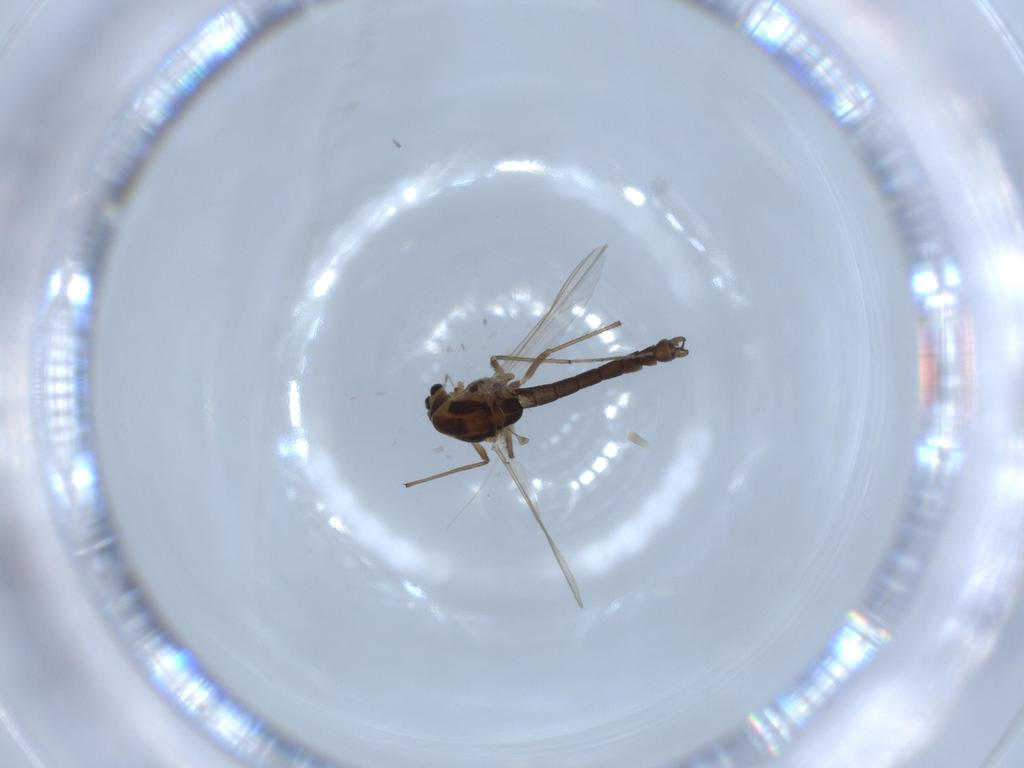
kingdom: Animalia
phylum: Arthropoda
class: Insecta
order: Diptera
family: Chironomidae
